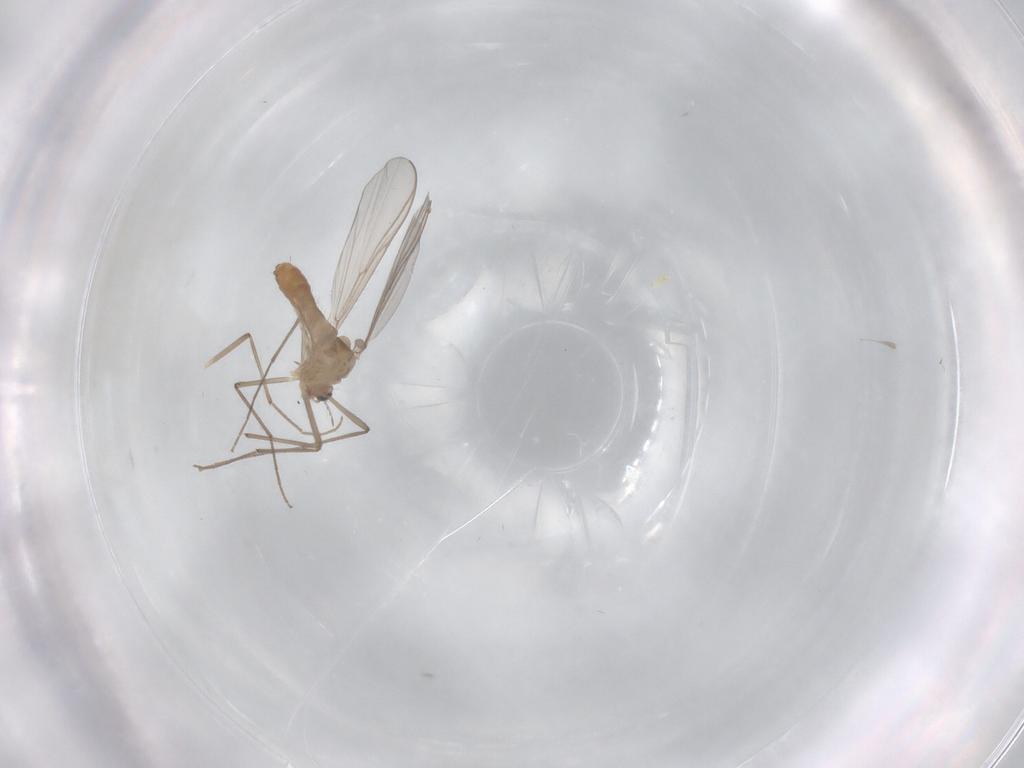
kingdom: Animalia
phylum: Arthropoda
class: Insecta
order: Diptera
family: Chironomidae
